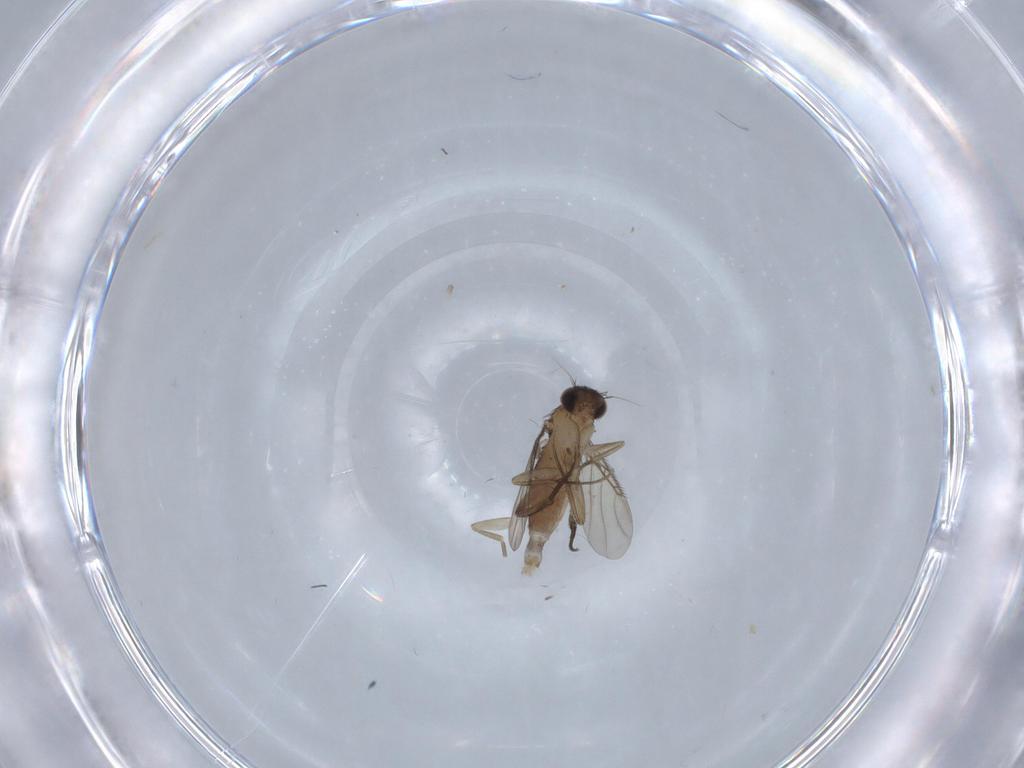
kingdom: Animalia
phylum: Arthropoda
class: Insecta
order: Diptera
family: Phoridae
